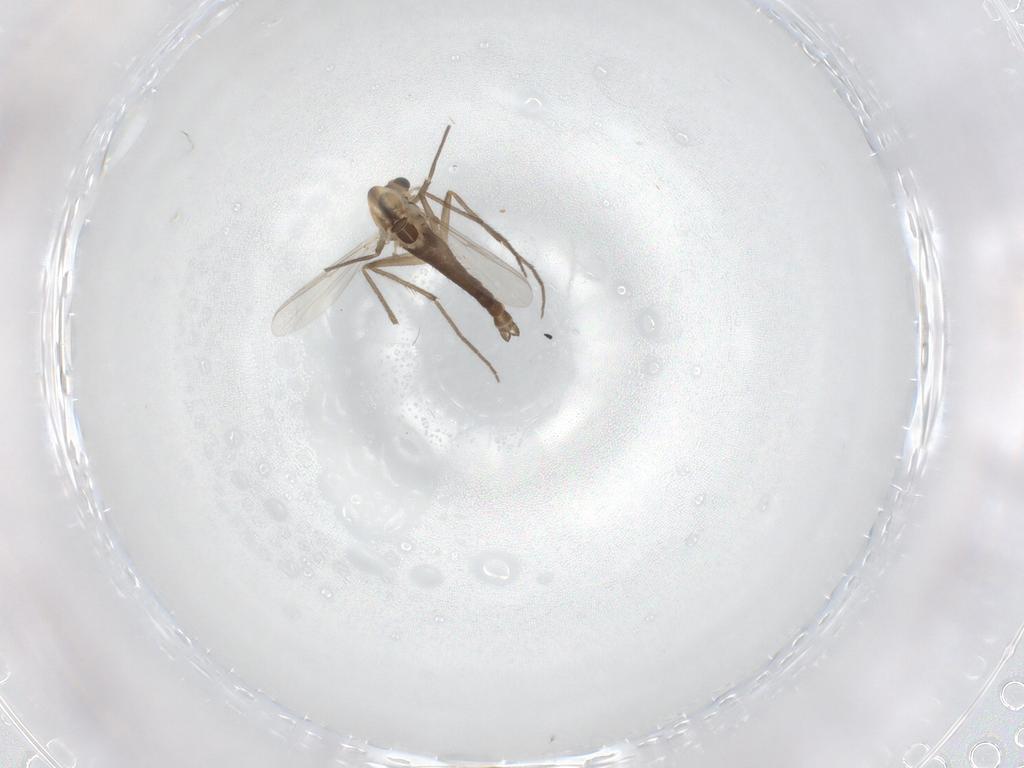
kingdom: Animalia
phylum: Arthropoda
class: Insecta
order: Diptera
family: Chironomidae
